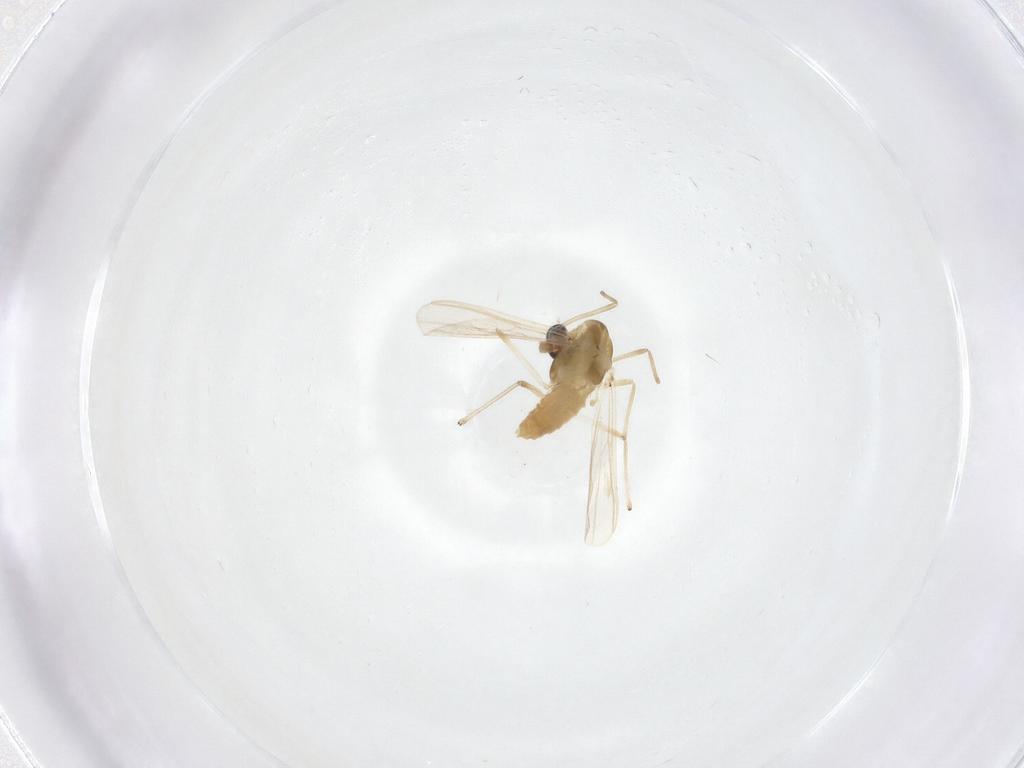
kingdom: Animalia
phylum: Arthropoda
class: Insecta
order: Diptera
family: Chironomidae
